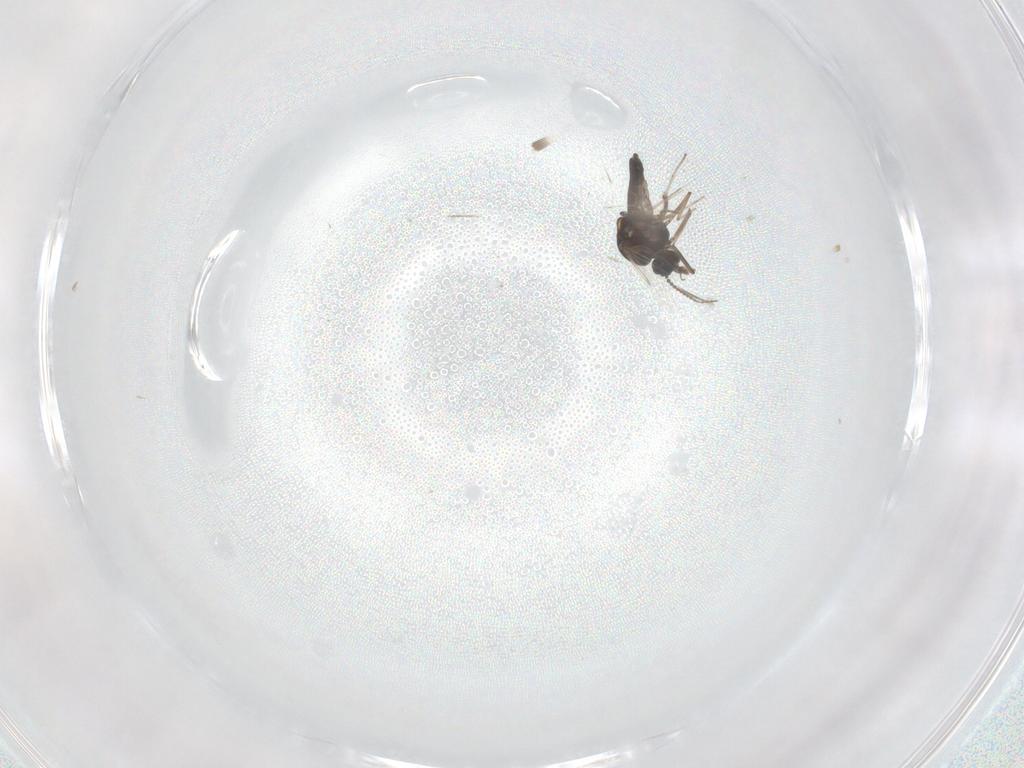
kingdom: Animalia
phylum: Arthropoda
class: Insecta
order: Diptera
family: Ceratopogonidae
